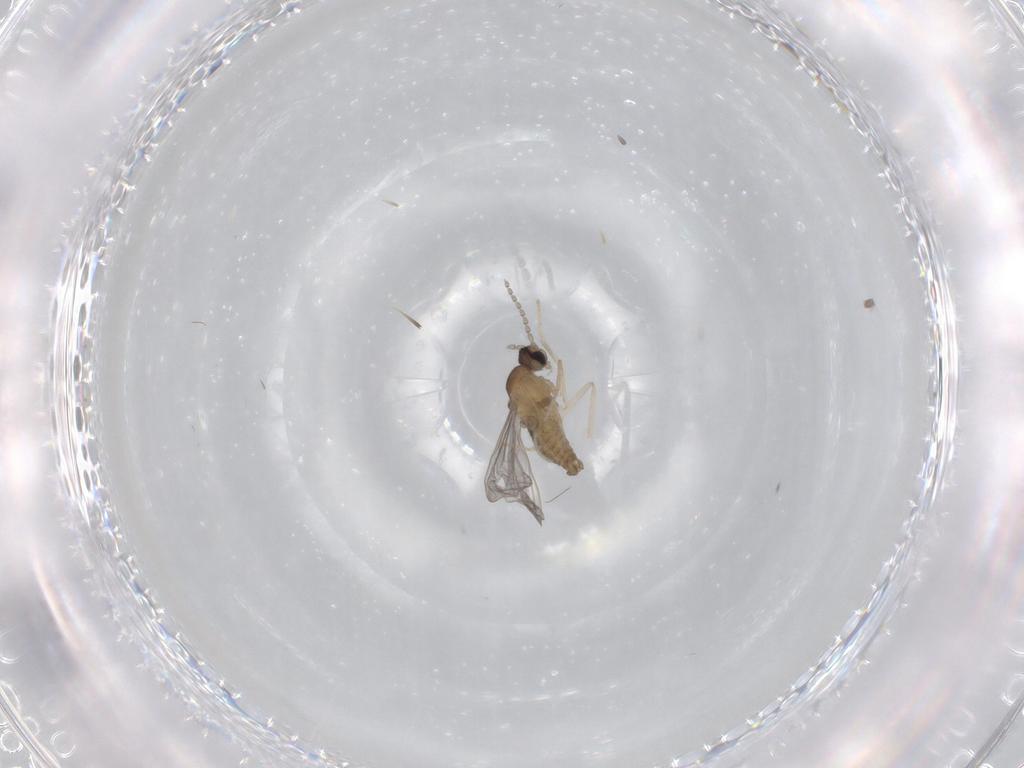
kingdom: Animalia
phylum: Arthropoda
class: Insecta
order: Diptera
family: Cecidomyiidae
